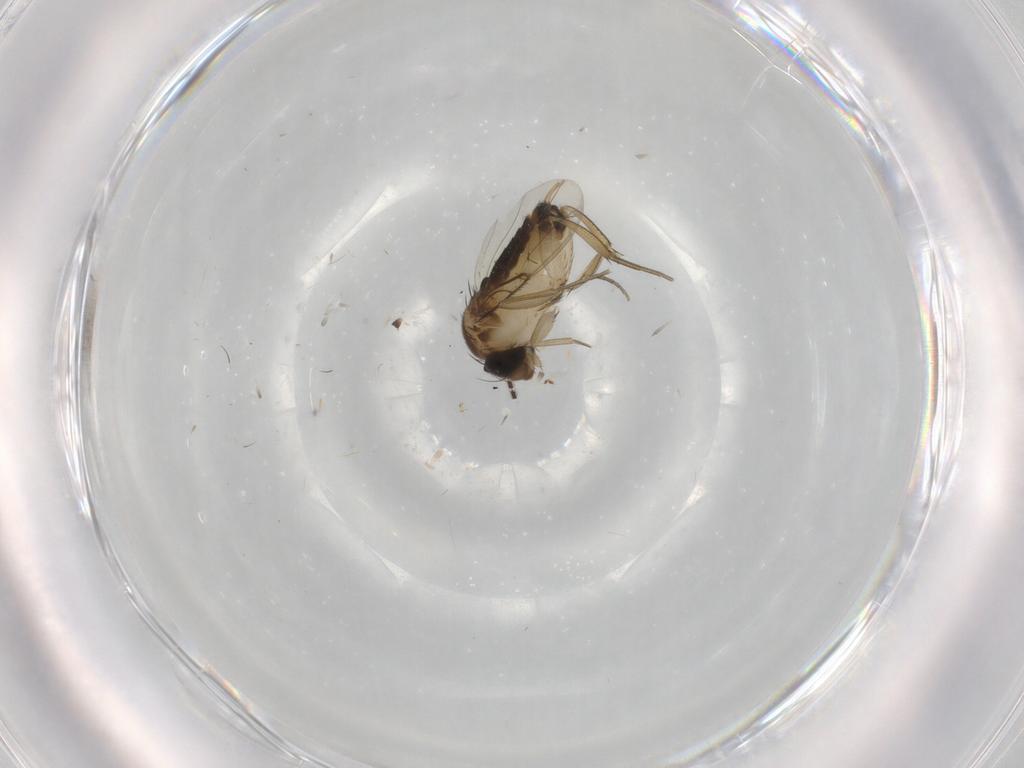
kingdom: Animalia
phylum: Arthropoda
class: Insecta
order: Diptera
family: Phoridae
